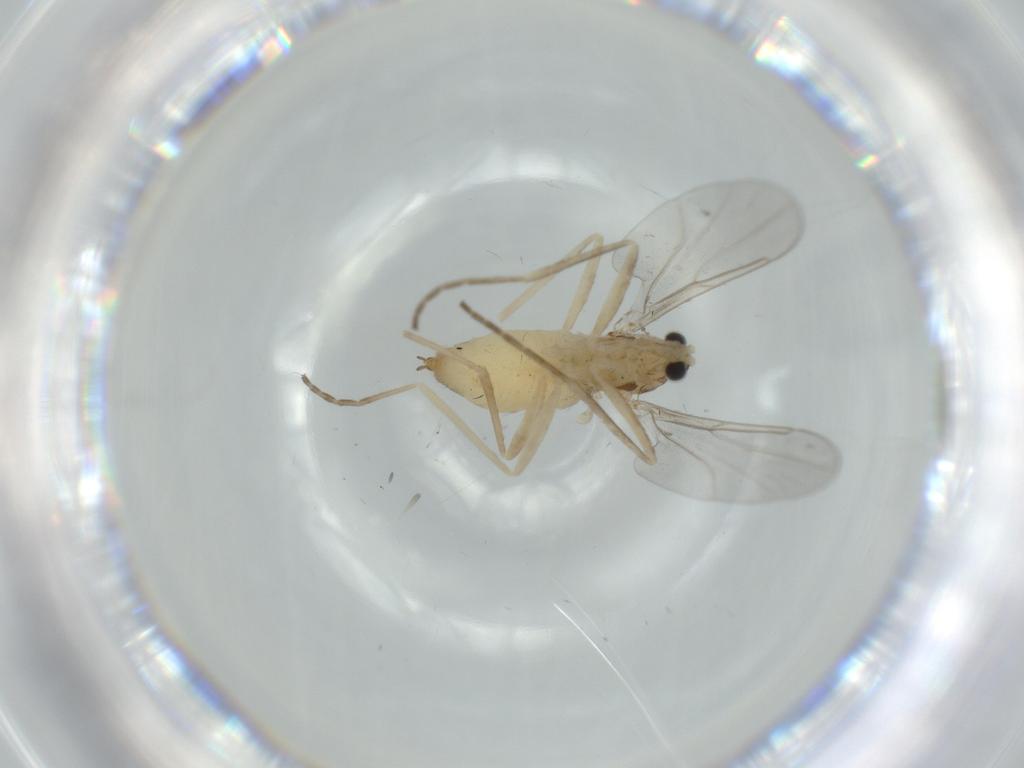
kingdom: Animalia
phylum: Arthropoda
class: Insecta
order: Diptera
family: Cecidomyiidae
